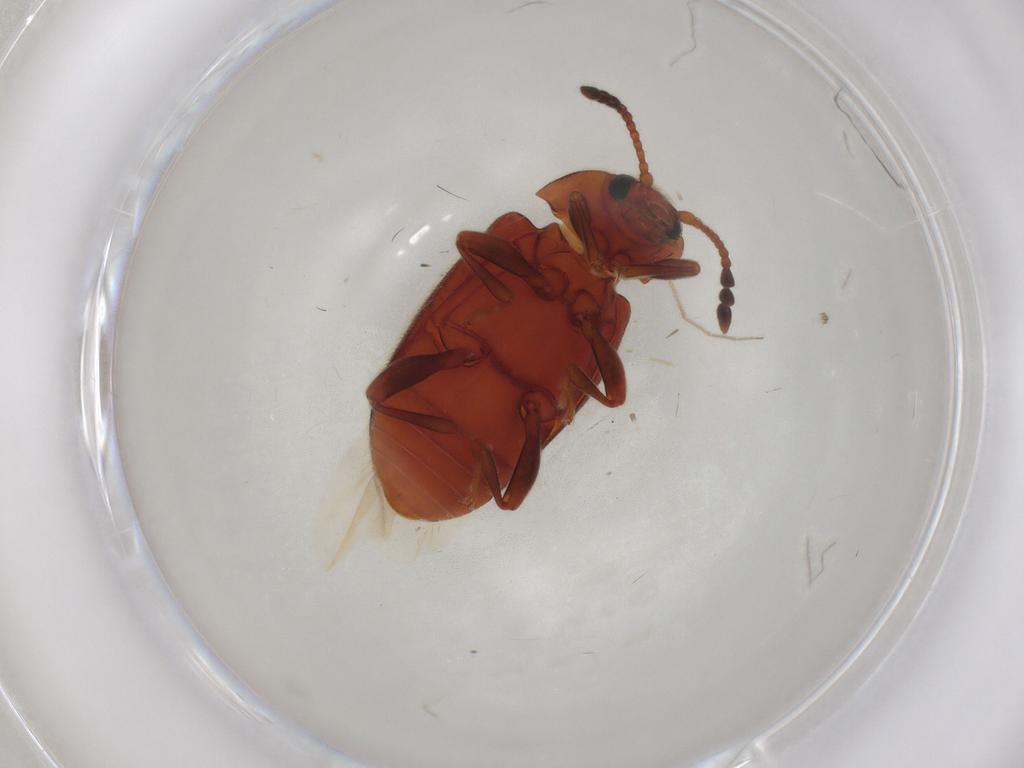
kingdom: Animalia
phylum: Arthropoda
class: Insecta
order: Coleoptera
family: Endomychidae
